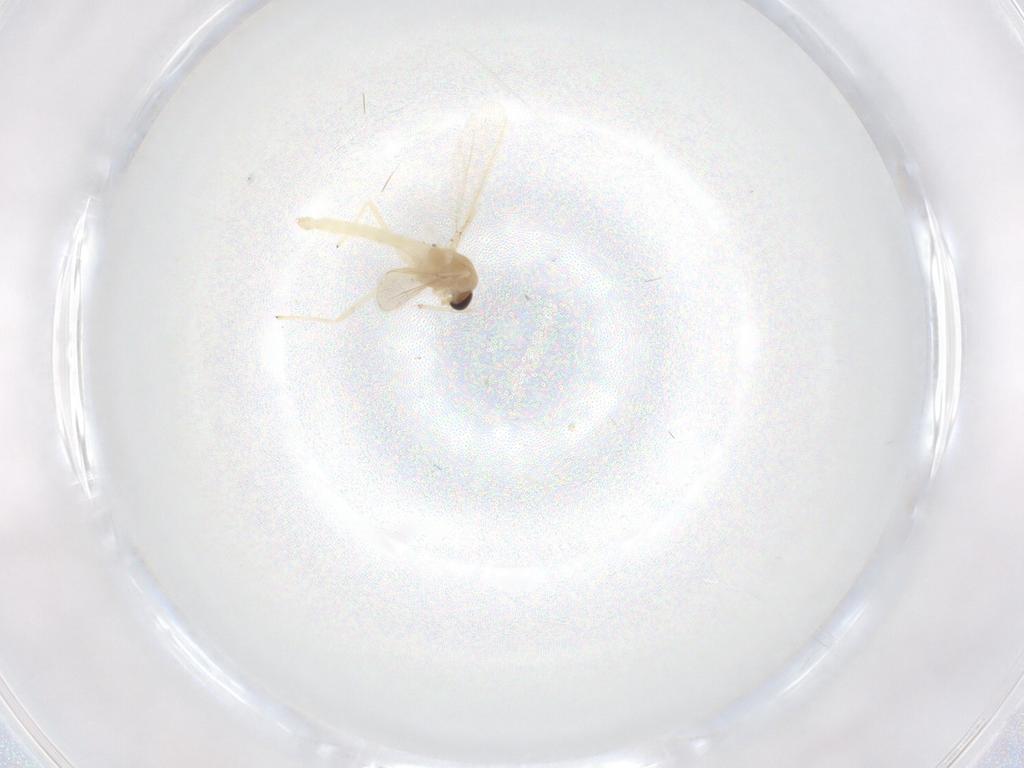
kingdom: Animalia
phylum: Arthropoda
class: Insecta
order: Diptera
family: Chironomidae
